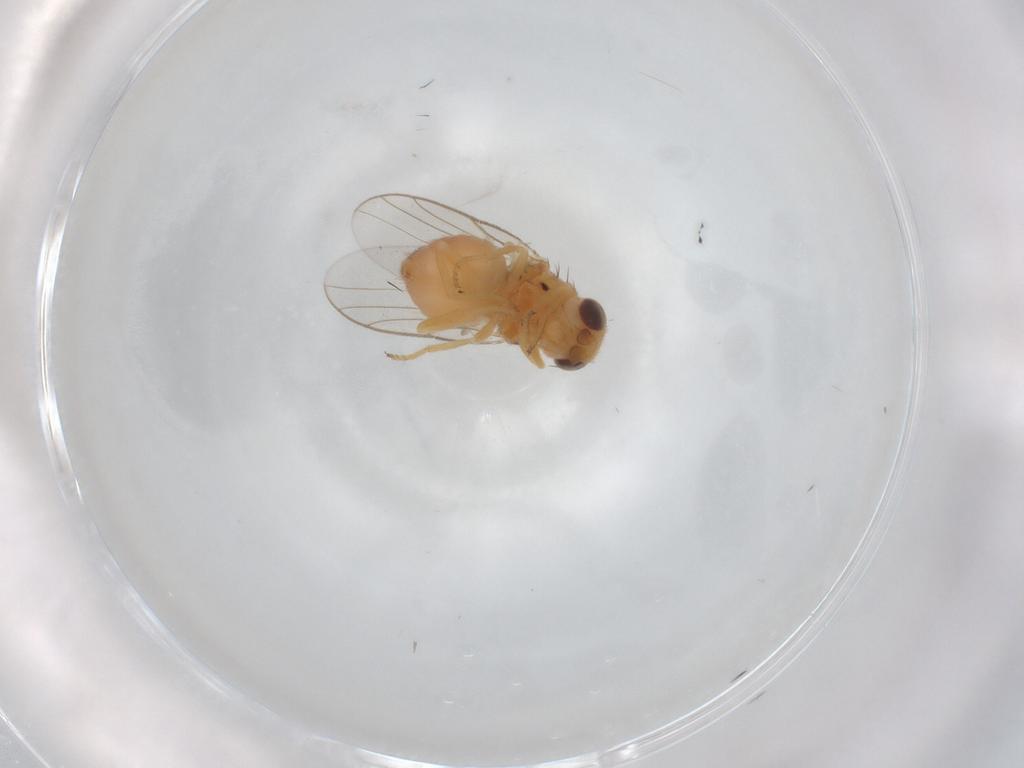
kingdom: Animalia
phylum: Arthropoda
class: Insecta
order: Diptera
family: Chloropidae
